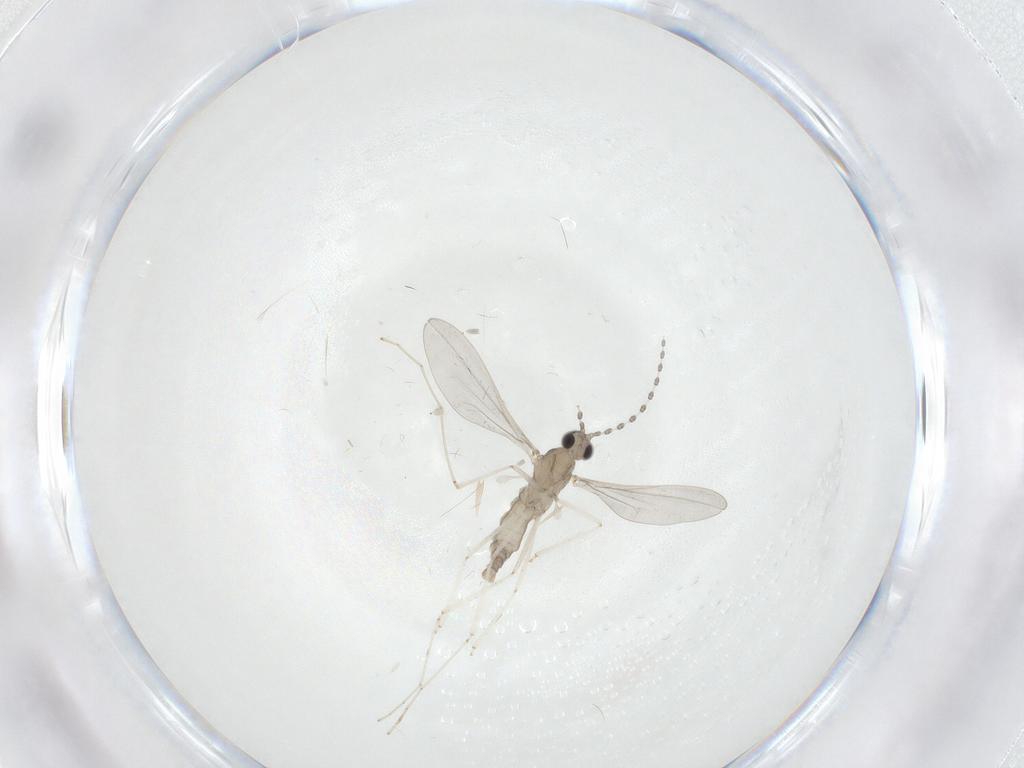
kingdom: Animalia
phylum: Arthropoda
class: Insecta
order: Diptera
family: Cecidomyiidae
